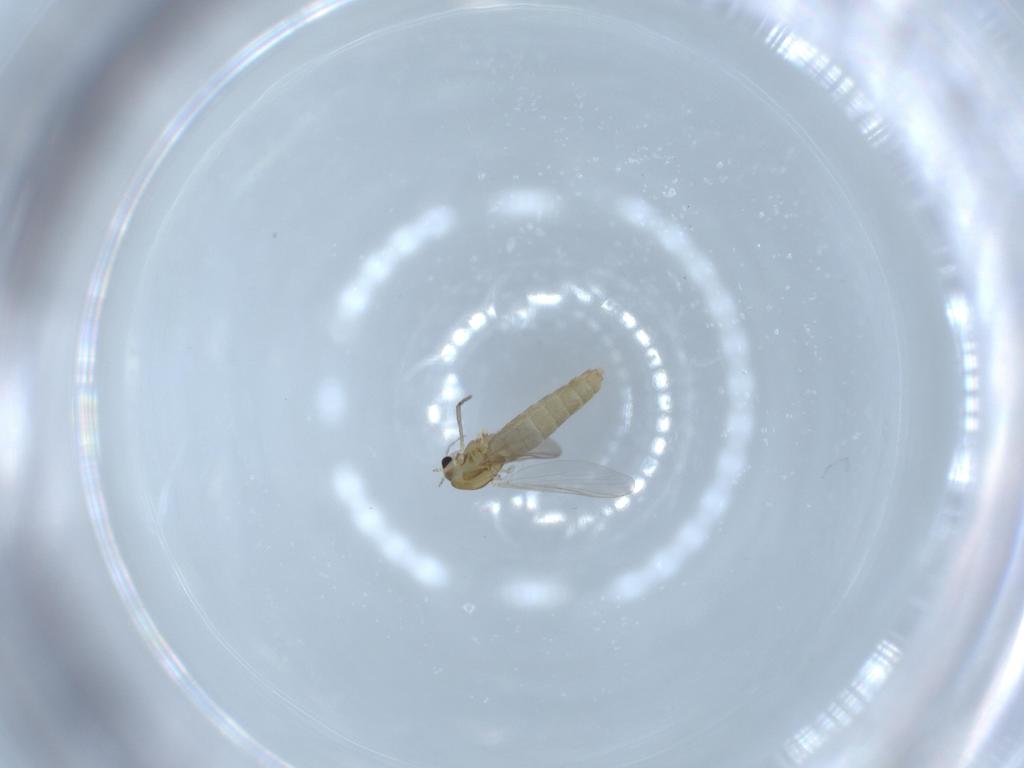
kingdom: Animalia
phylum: Arthropoda
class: Insecta
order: Diptera
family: Chironomidae
